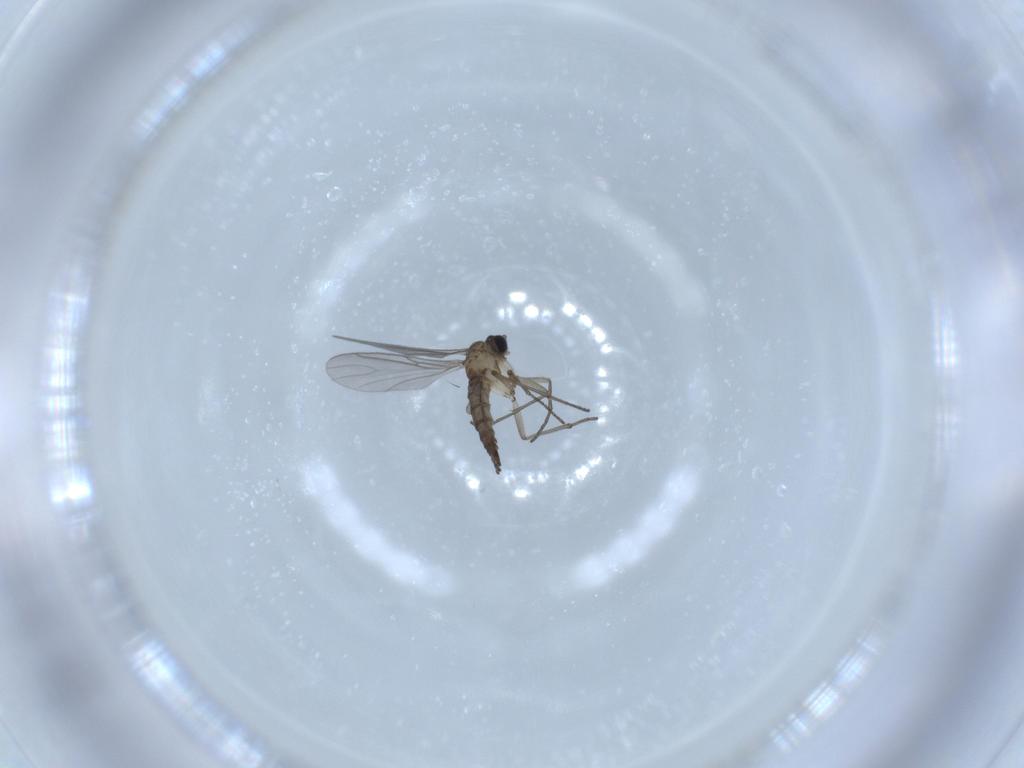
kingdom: Animalia
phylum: Arthropoda
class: Insecta
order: Diptera
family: Sciaridae
